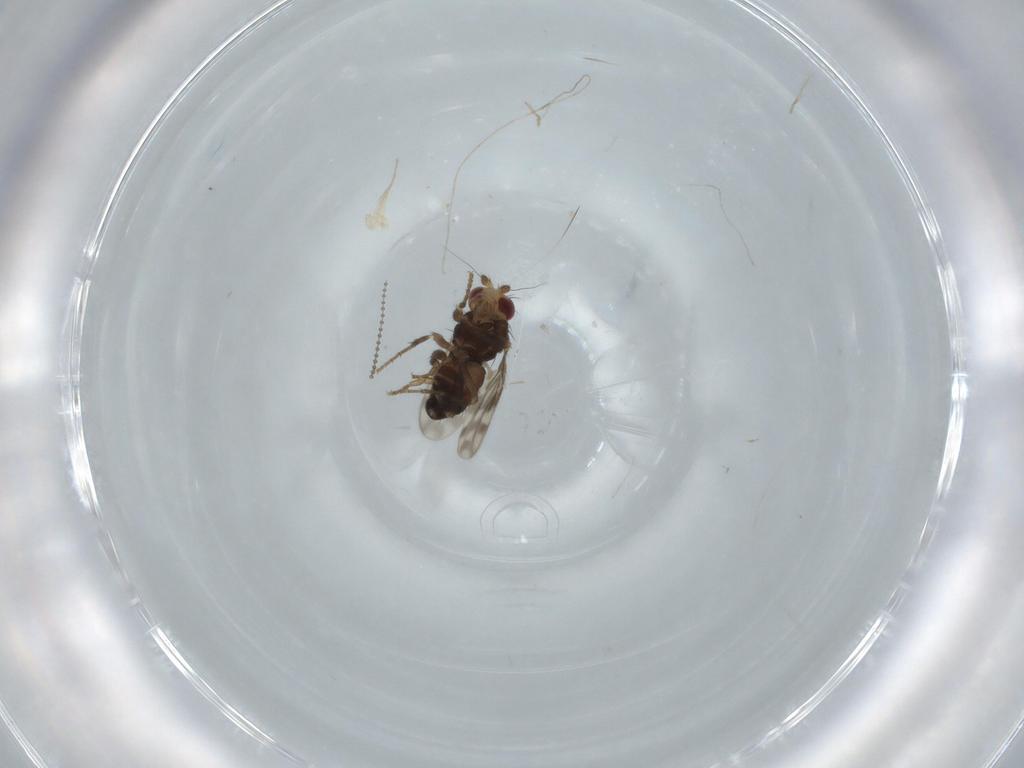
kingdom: Animalia
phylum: Arthropoda
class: Insecta
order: Diptera
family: Sphaeroceridae
